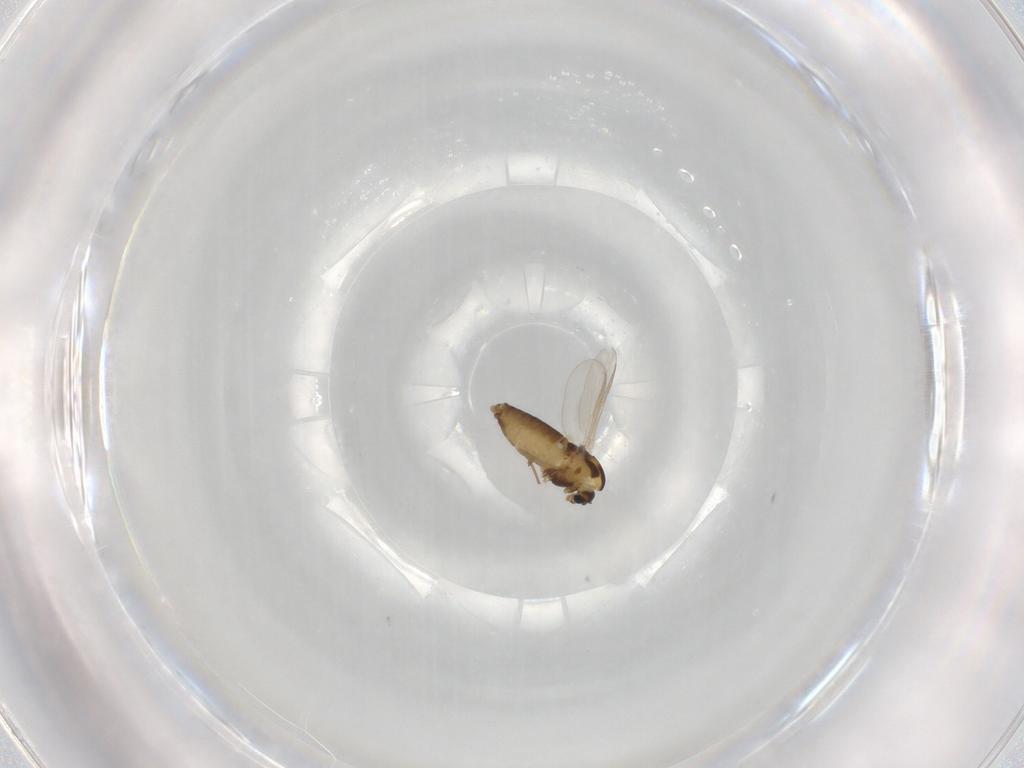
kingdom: Animalia
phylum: Arthropoda
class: Insecta
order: Diptera
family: Chironomidae
